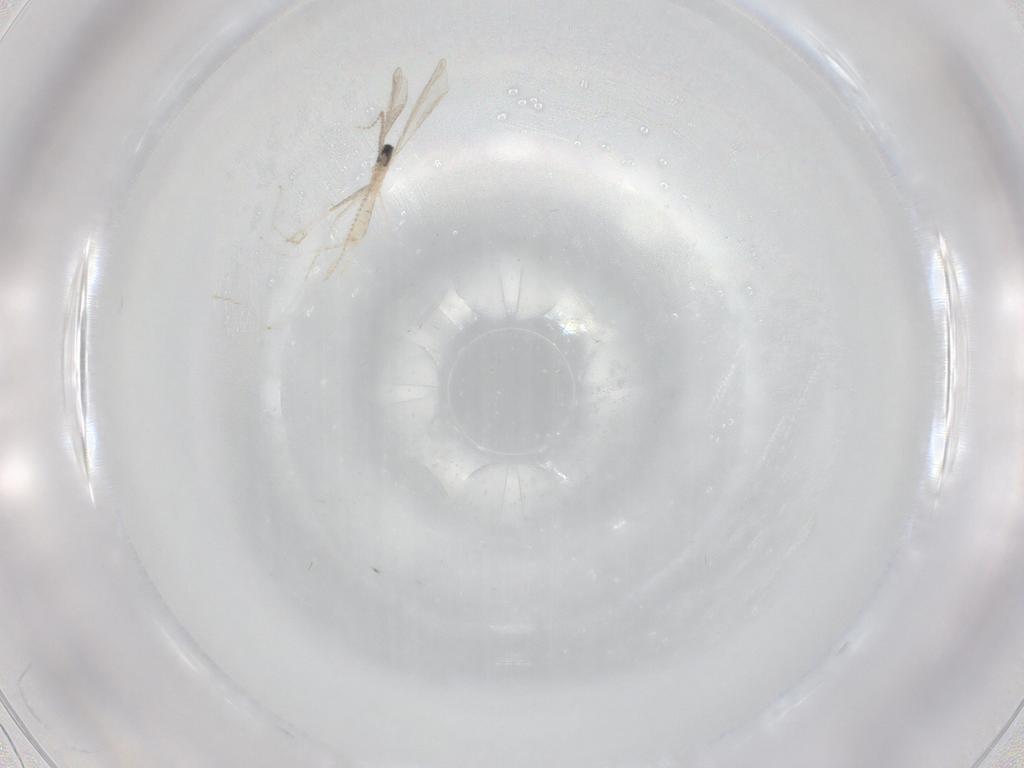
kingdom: Animalia
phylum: Arthropoda
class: Insecta
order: Diptera
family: Cecidomyiidae
